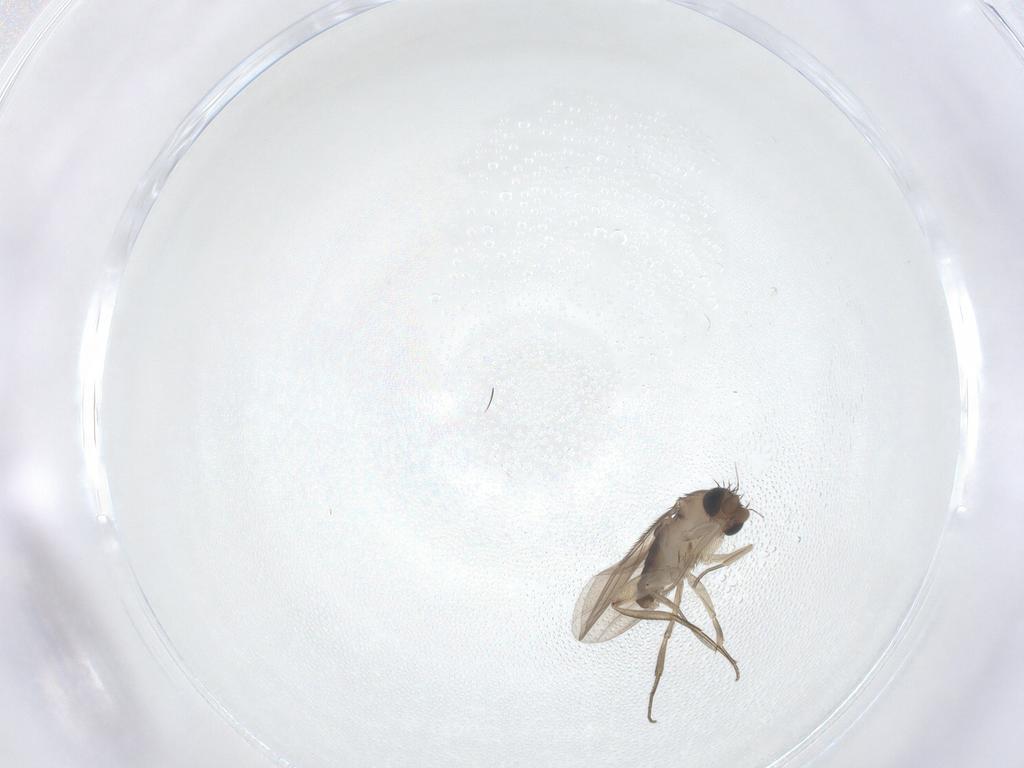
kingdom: Animalia
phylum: Arthropoda
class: Insecta
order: Diptera
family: Phoridae
